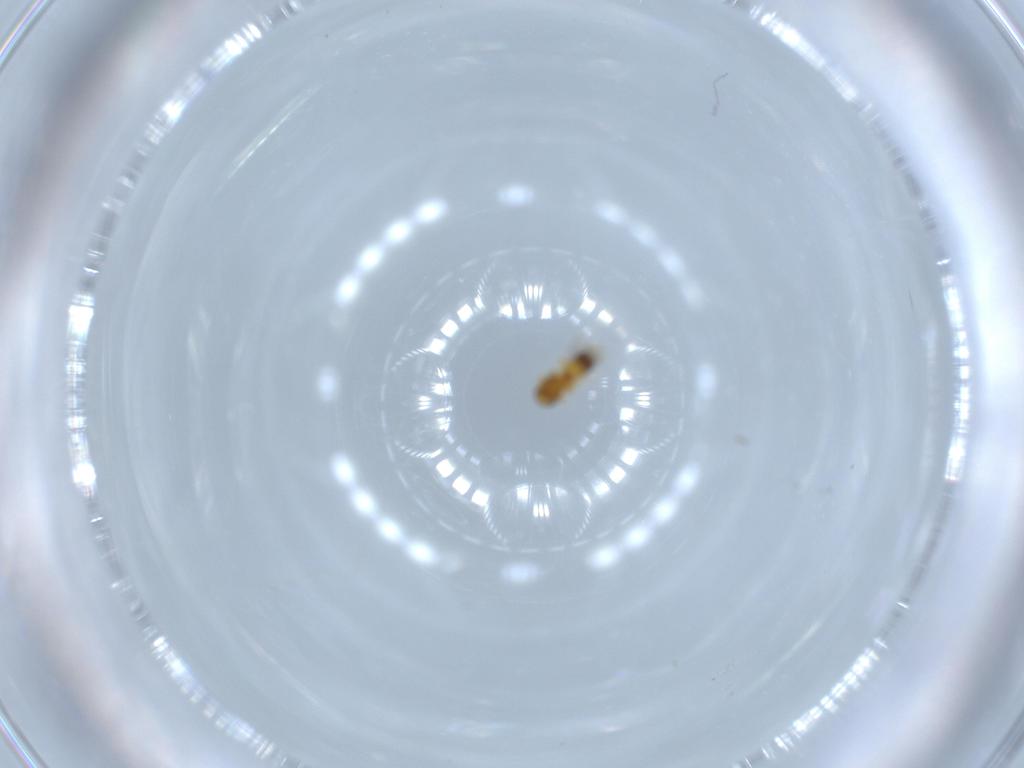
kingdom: Animalia
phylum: Arthropoda
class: Insecta
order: Hymenoptera
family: Platygastridae
